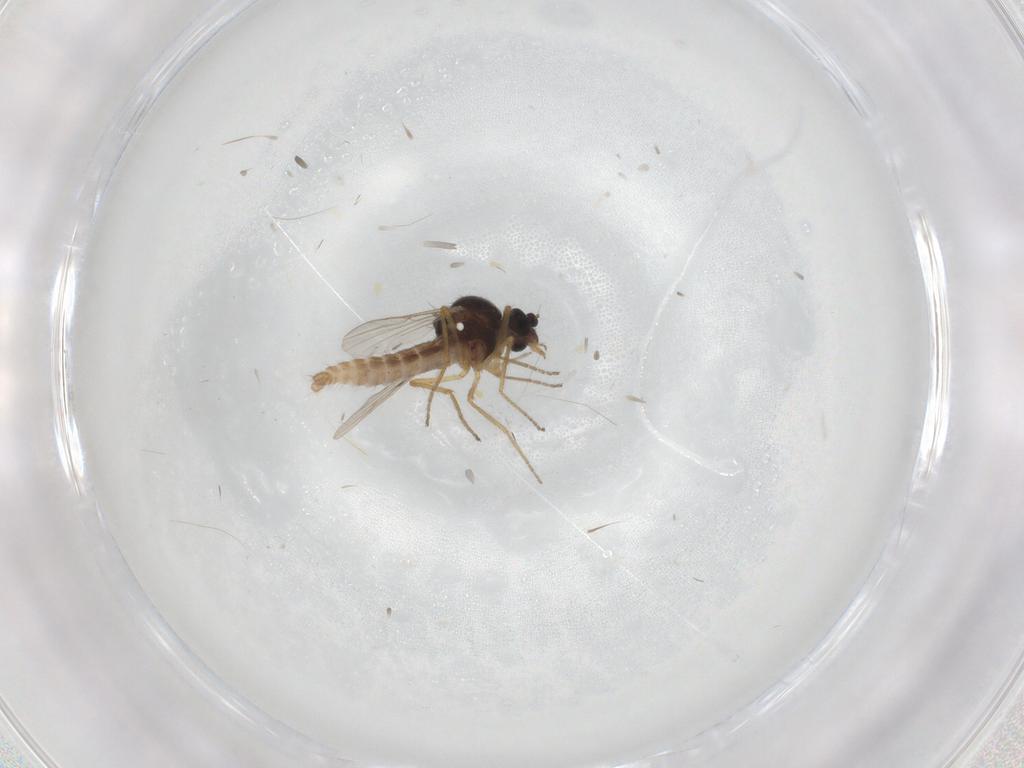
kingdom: Animalia
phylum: Arthropoda
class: Insecta
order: Diptera
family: Ceratopogonidae
